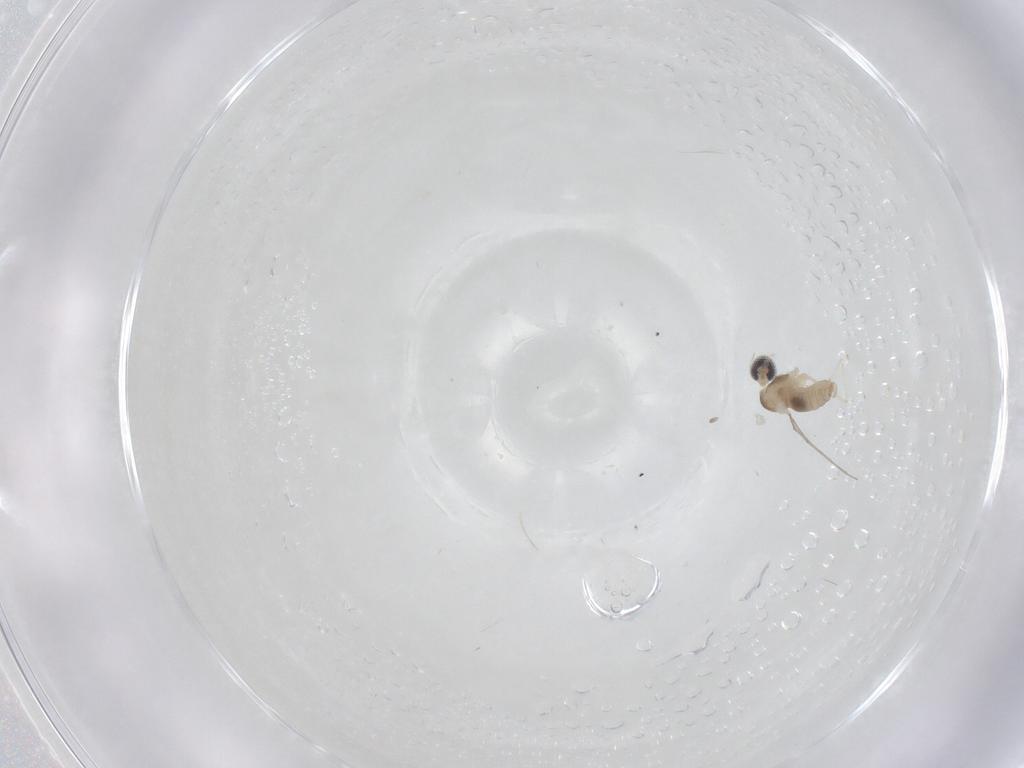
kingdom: Animalia
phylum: Arthropoda
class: Insecta
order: Diptera
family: Cecidomyiidae
